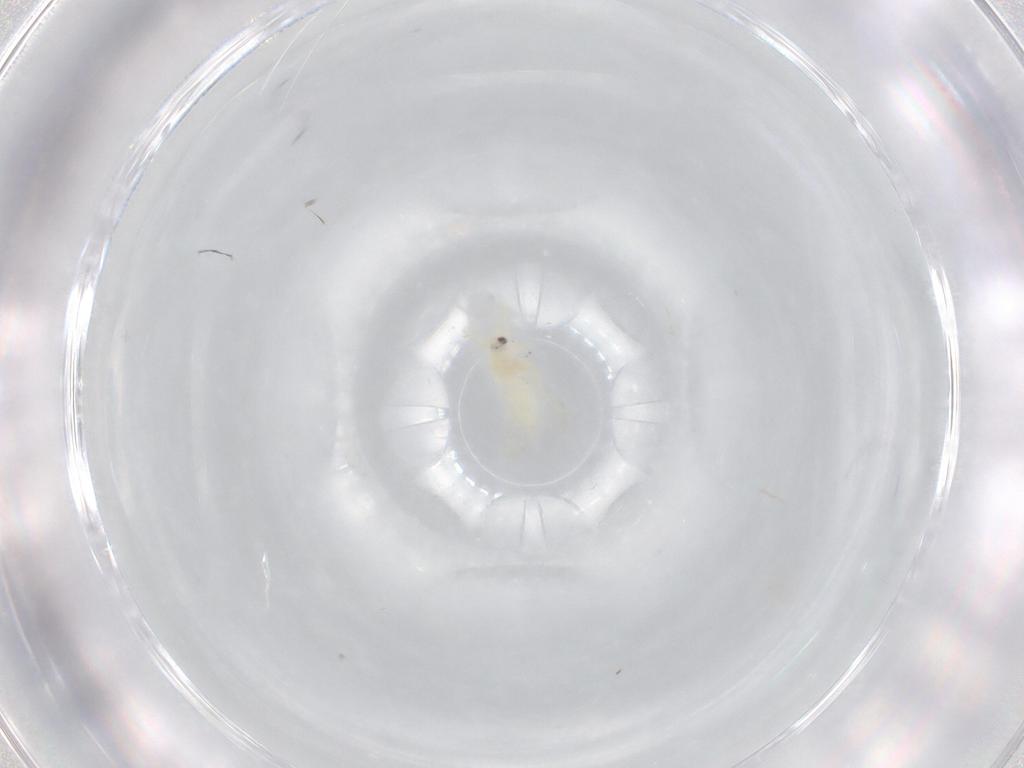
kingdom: Animalia
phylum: Arthropoda
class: Insecta
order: Hemiptera
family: Aleyrodidae
